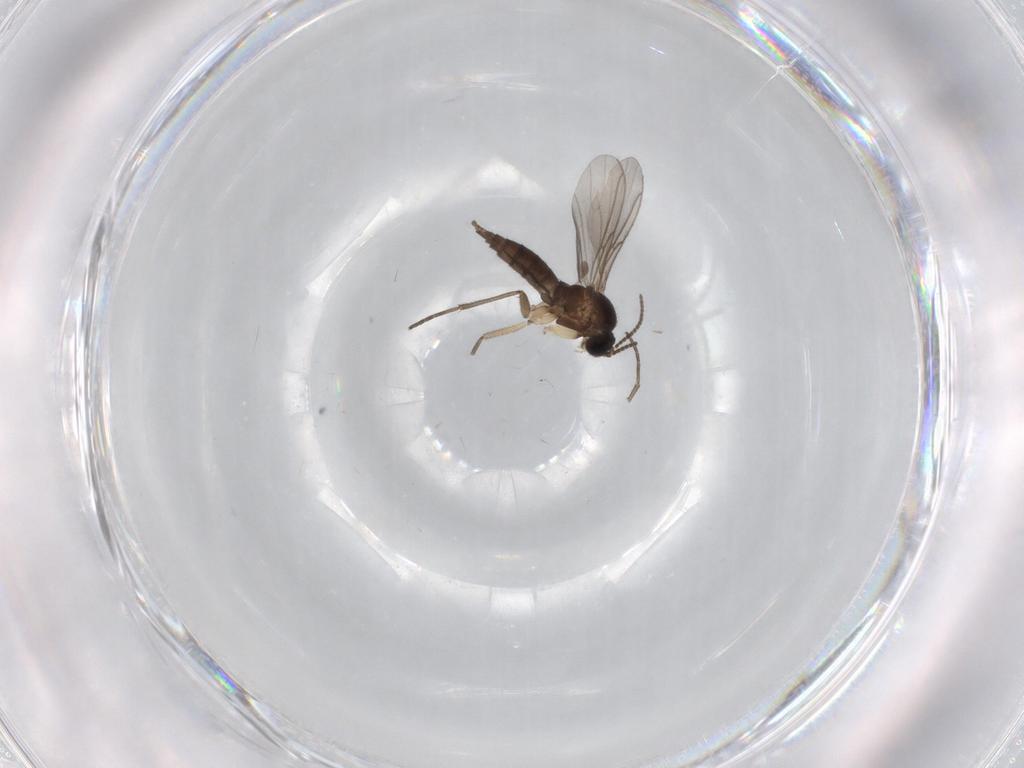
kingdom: Animalia
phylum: Arthropoda
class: Insecta
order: Diptera
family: Sciaridae
